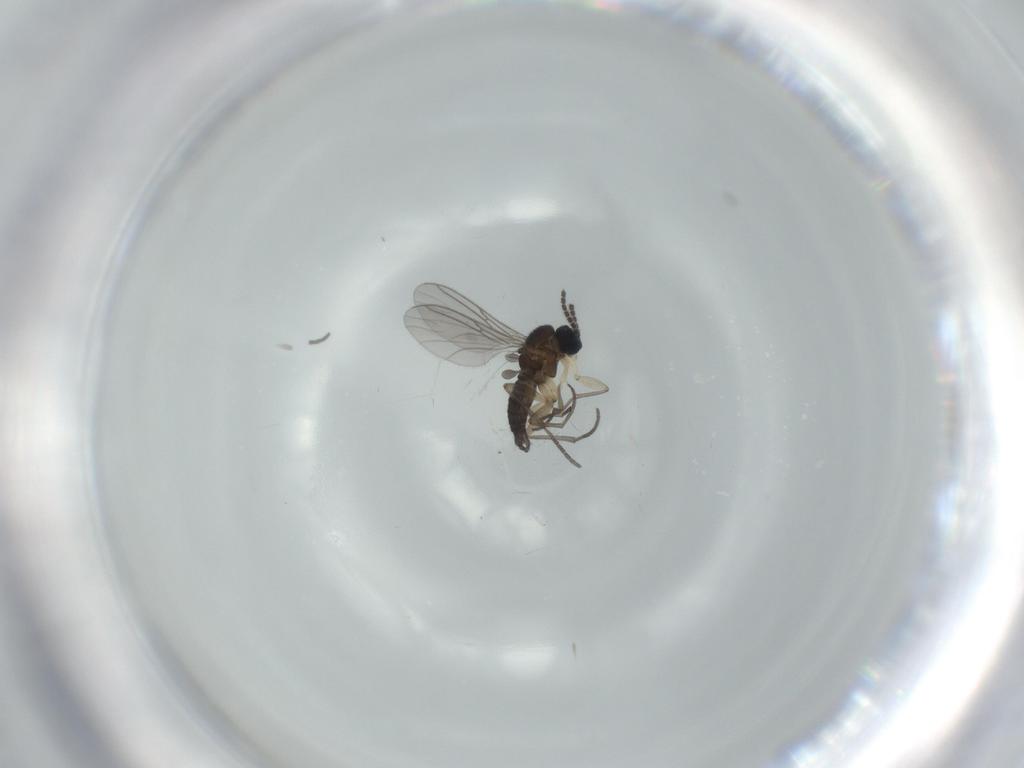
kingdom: Animalia
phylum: Arthropoda
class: Insecta
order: Diptera
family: Sciaridae
